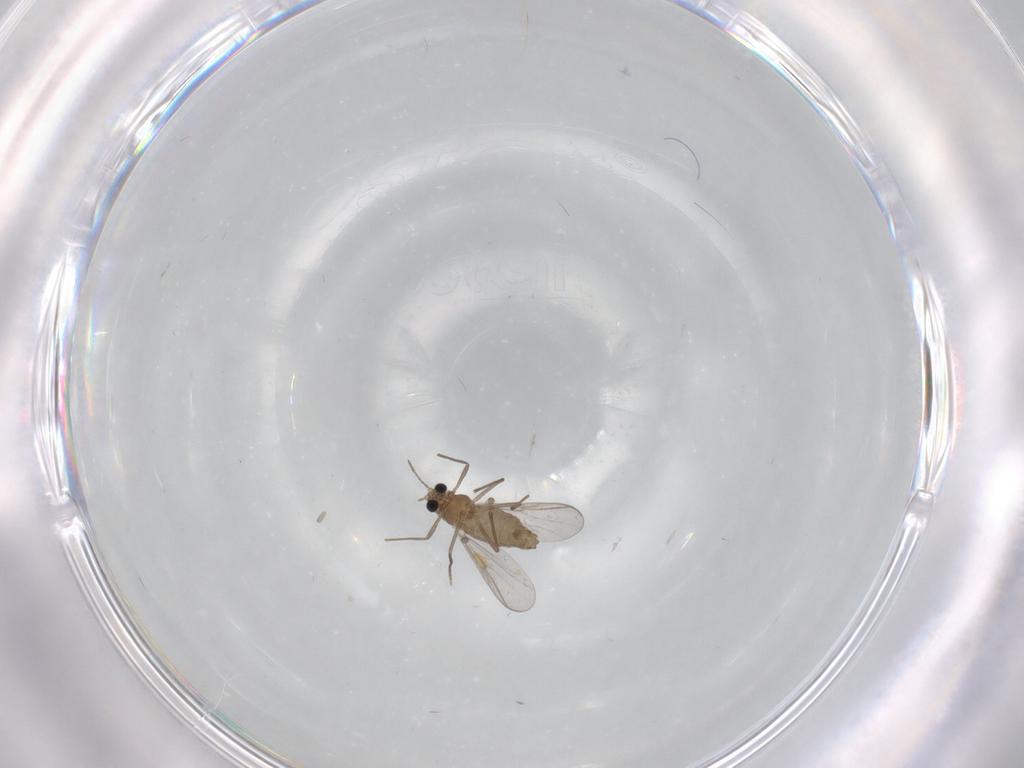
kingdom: Animalia
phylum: Arthropoda
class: Insecta
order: Diptera
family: Chironomidae
